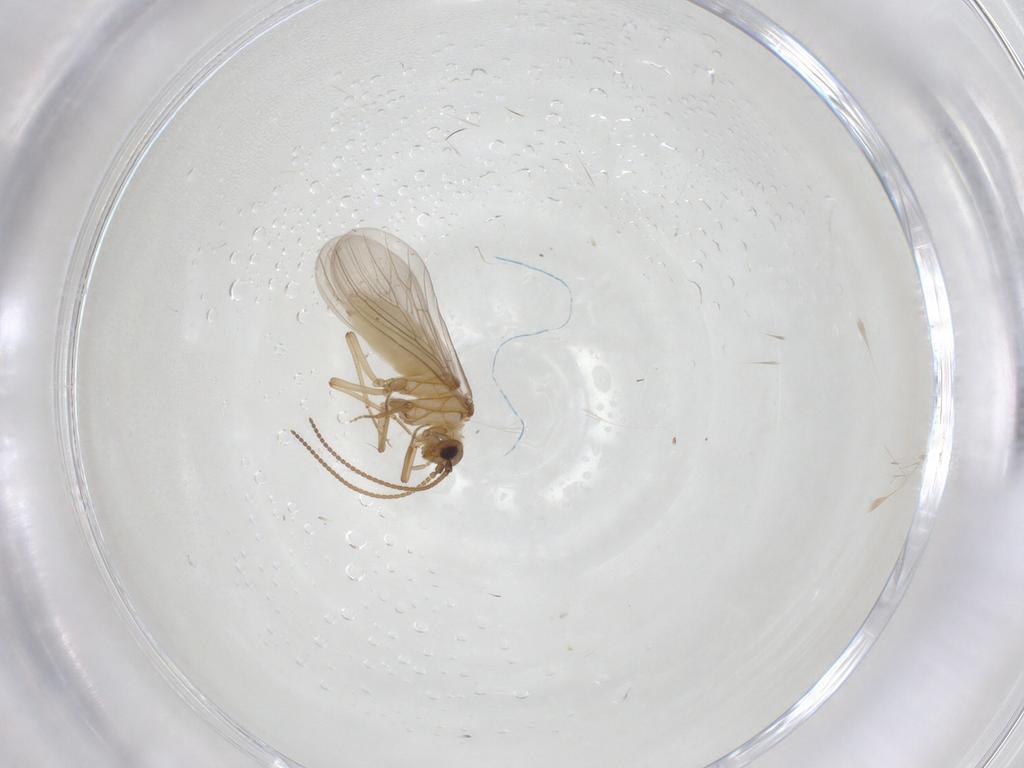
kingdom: Animalia
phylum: Arthropoda
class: Insecta
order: Neuroptera
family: Coniopterygidae
